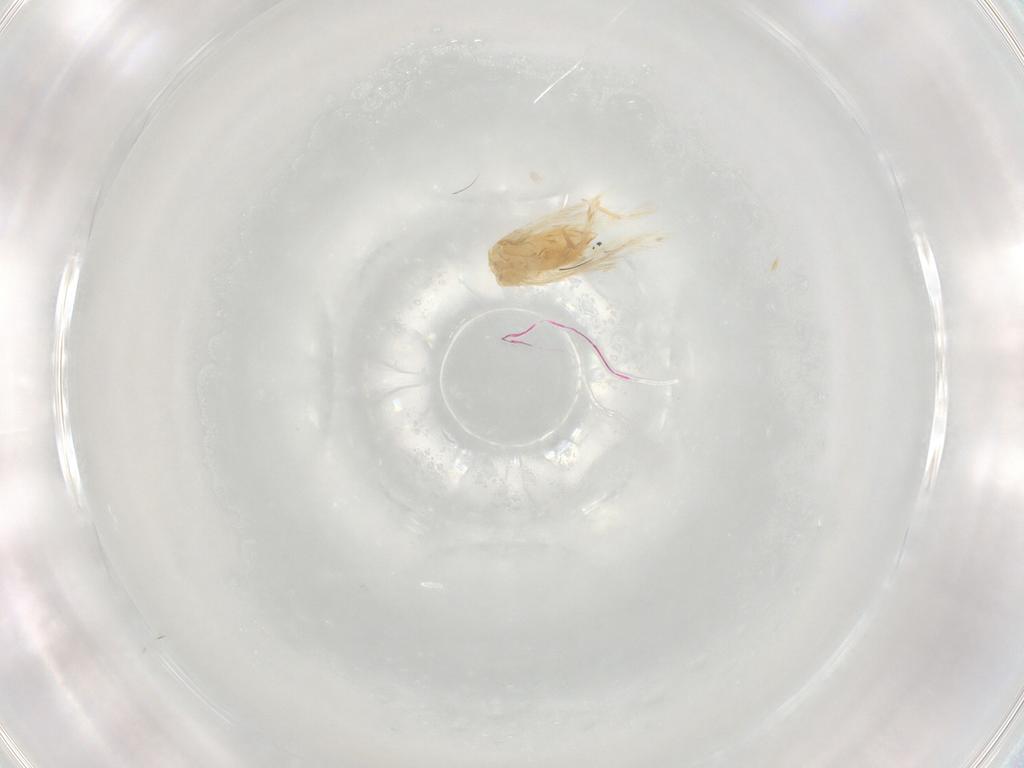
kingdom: Animalia
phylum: Arthropoda
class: Insecta
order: Lepidoptera
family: Nepticulidae
